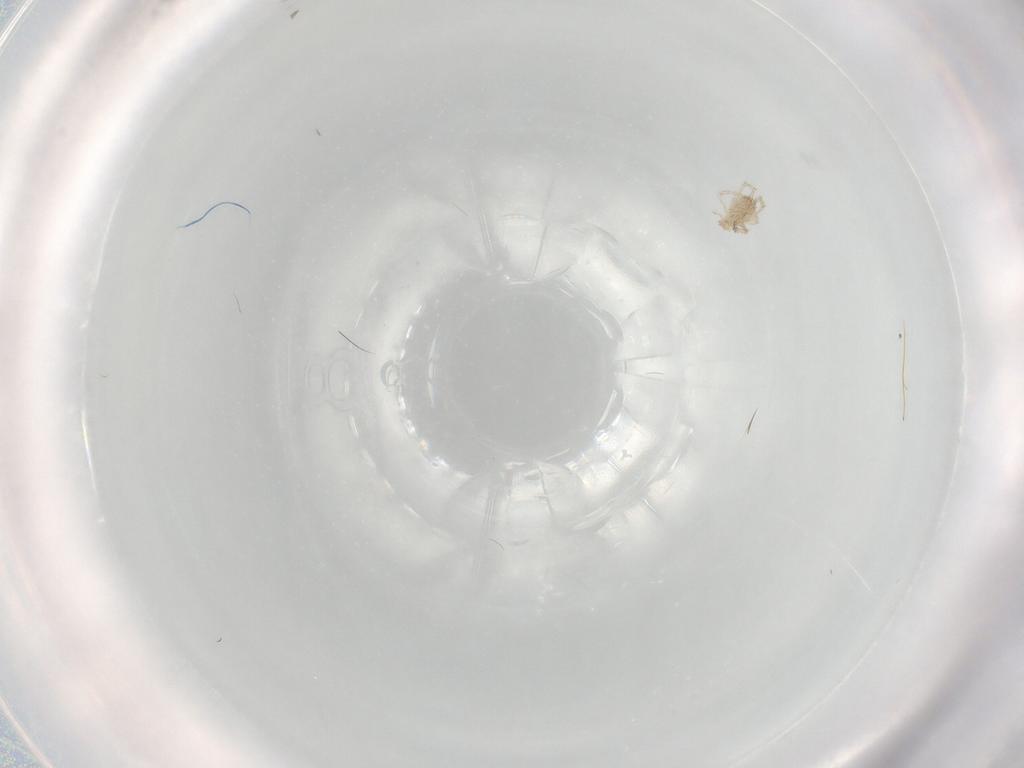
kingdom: Animalia
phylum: Arthropoda
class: Arachnida
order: Trombidiformes
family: Erythraeidae
